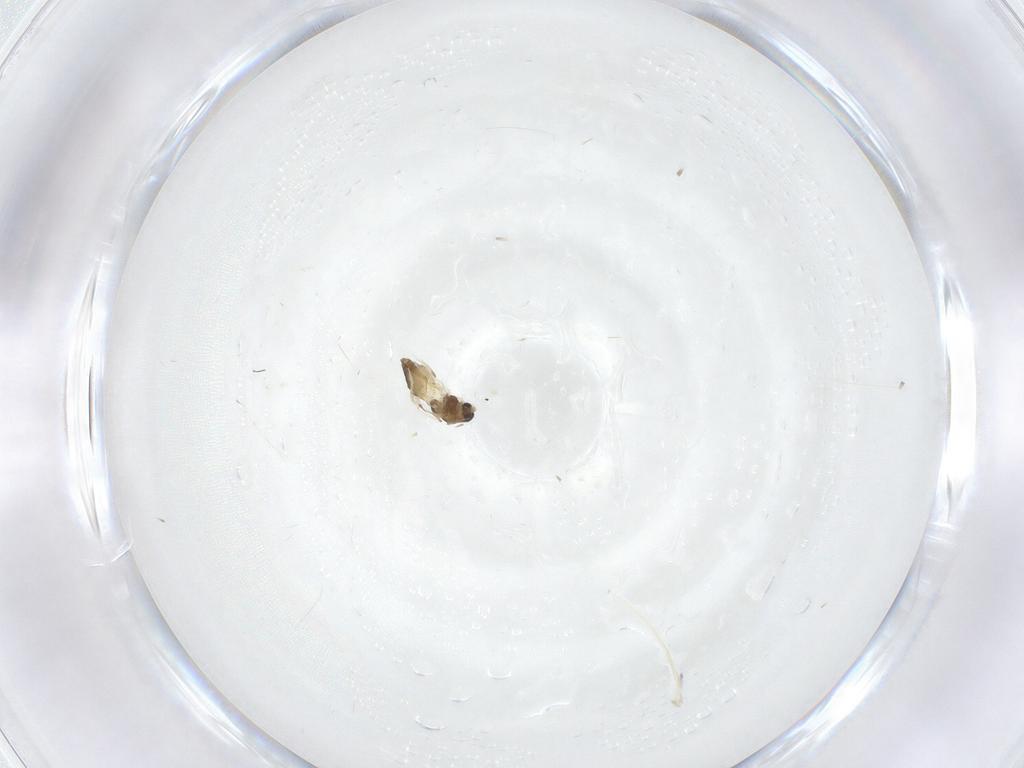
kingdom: Animalia
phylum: Arthropoda
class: Insecta
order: Diptera
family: Chironomidae
